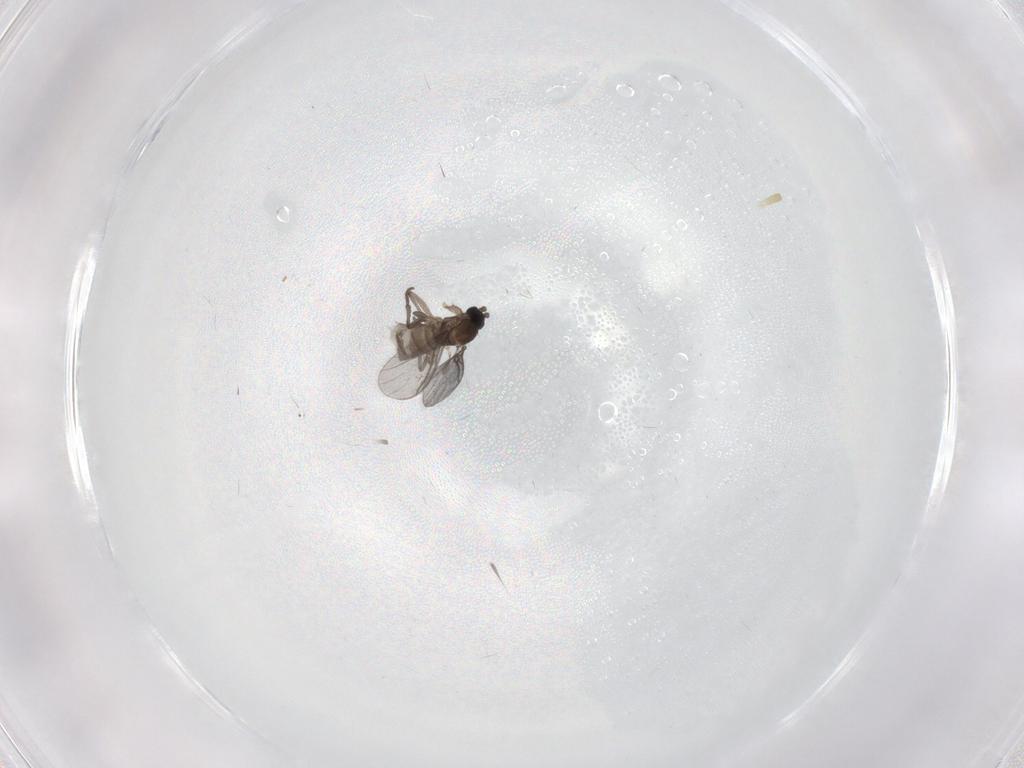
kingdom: Animalia
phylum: Arthropoda
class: Insecta
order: Diptera
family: Sciaridae
